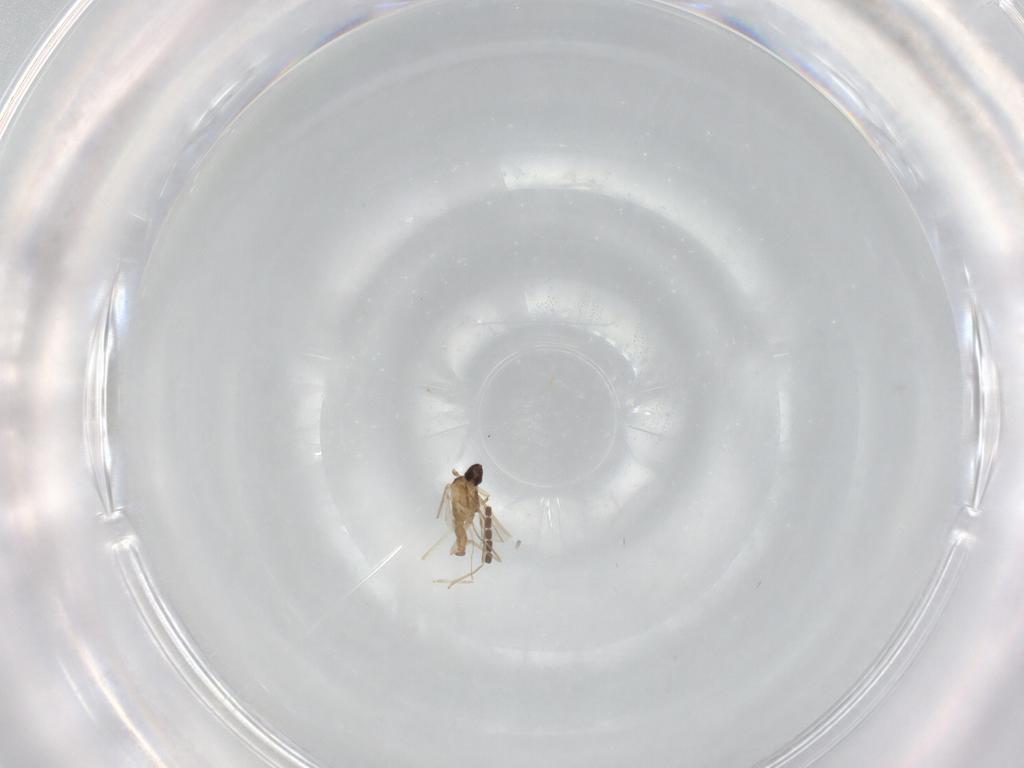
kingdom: Animalia
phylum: Arthropoda
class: Insecta
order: Diptera
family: Cecidomyiidae
